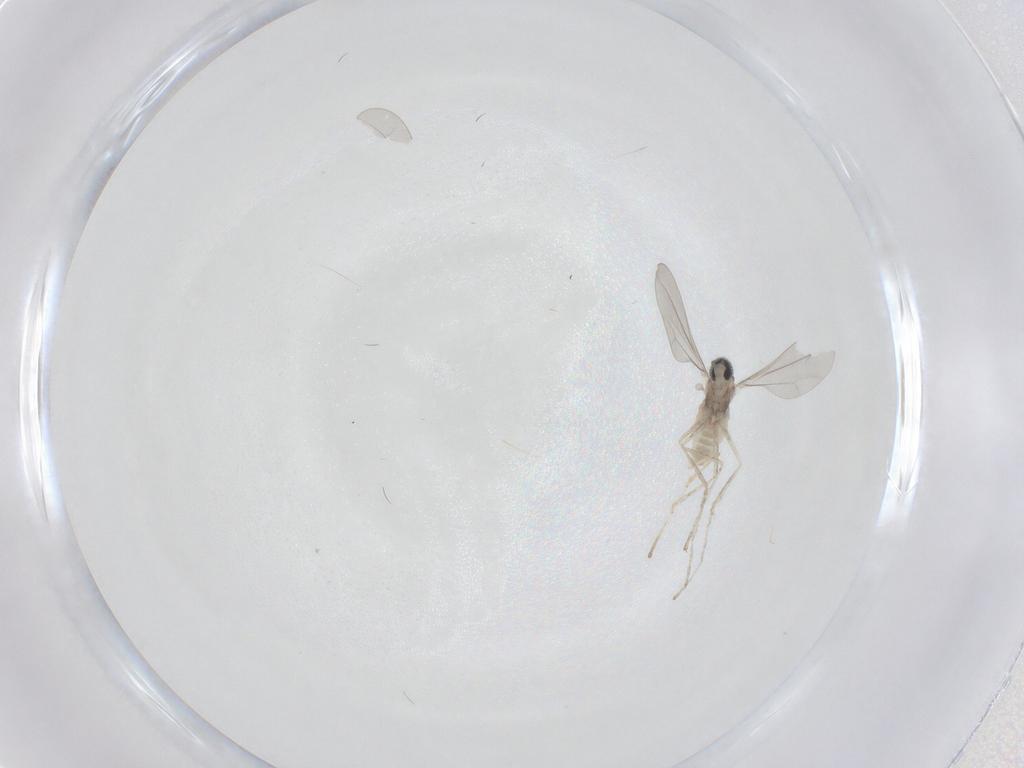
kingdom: Animalia
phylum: Arthropoda
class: Insecta
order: Diptera
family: Cecidomyiidae
